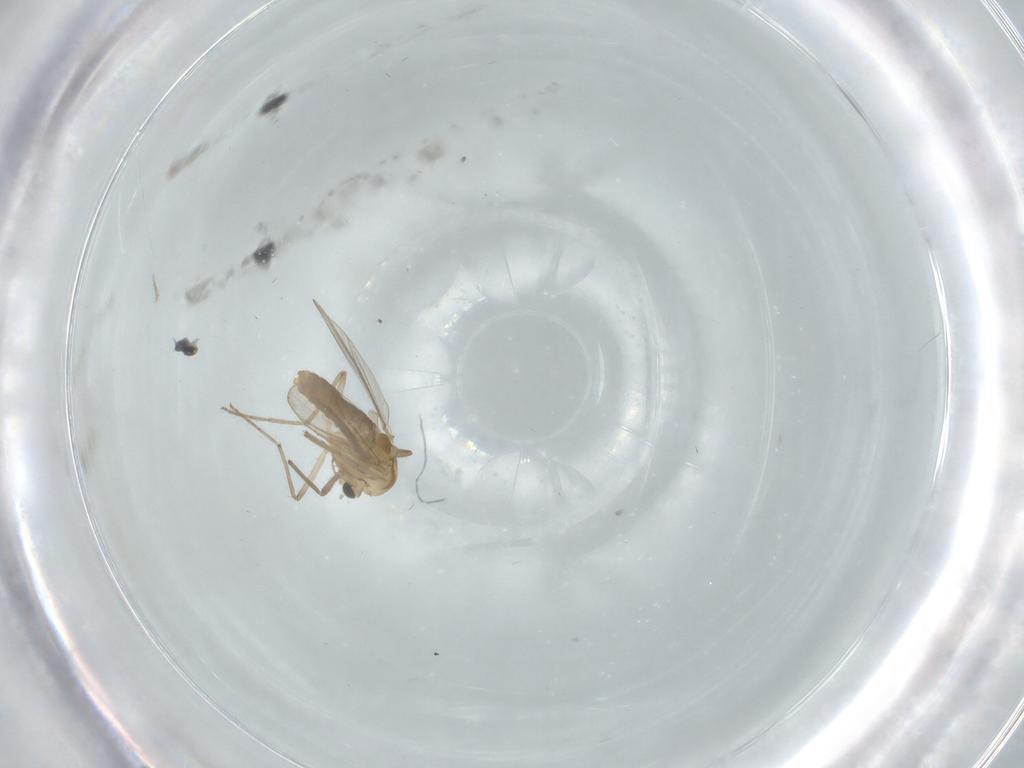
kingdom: Animalia
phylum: Arthropoda
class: Insecta
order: Diptera
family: Chironomidae
